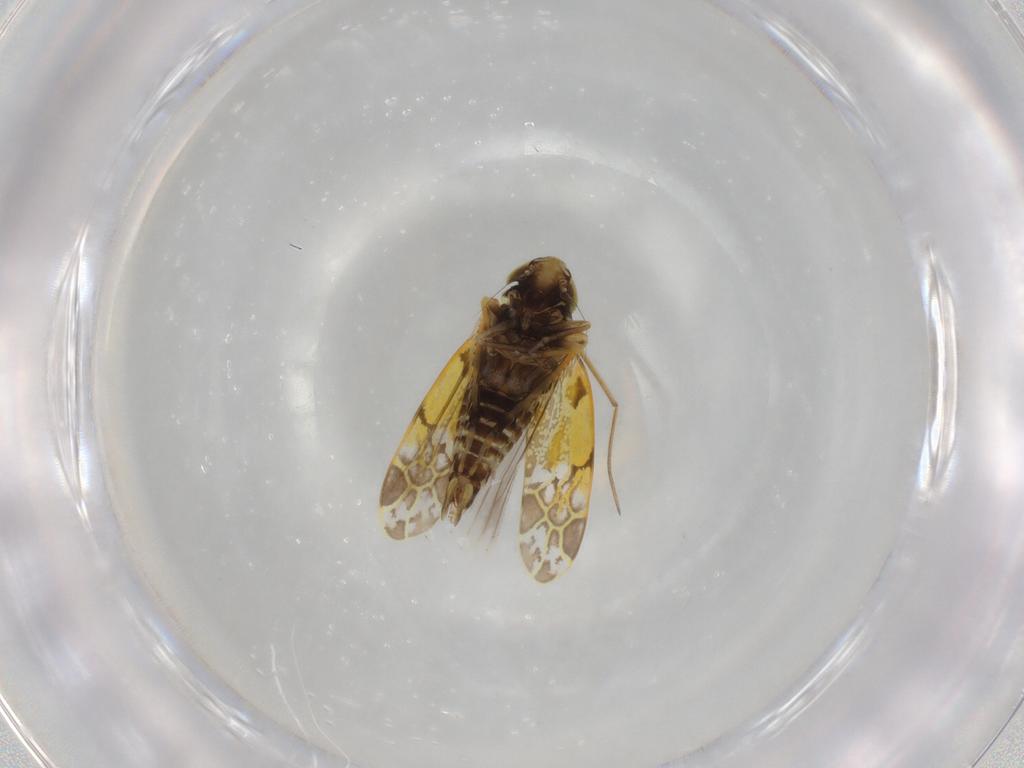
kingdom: Animalia
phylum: Arthropoda
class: Insecta
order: Hemiptera
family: Cicadellidae
